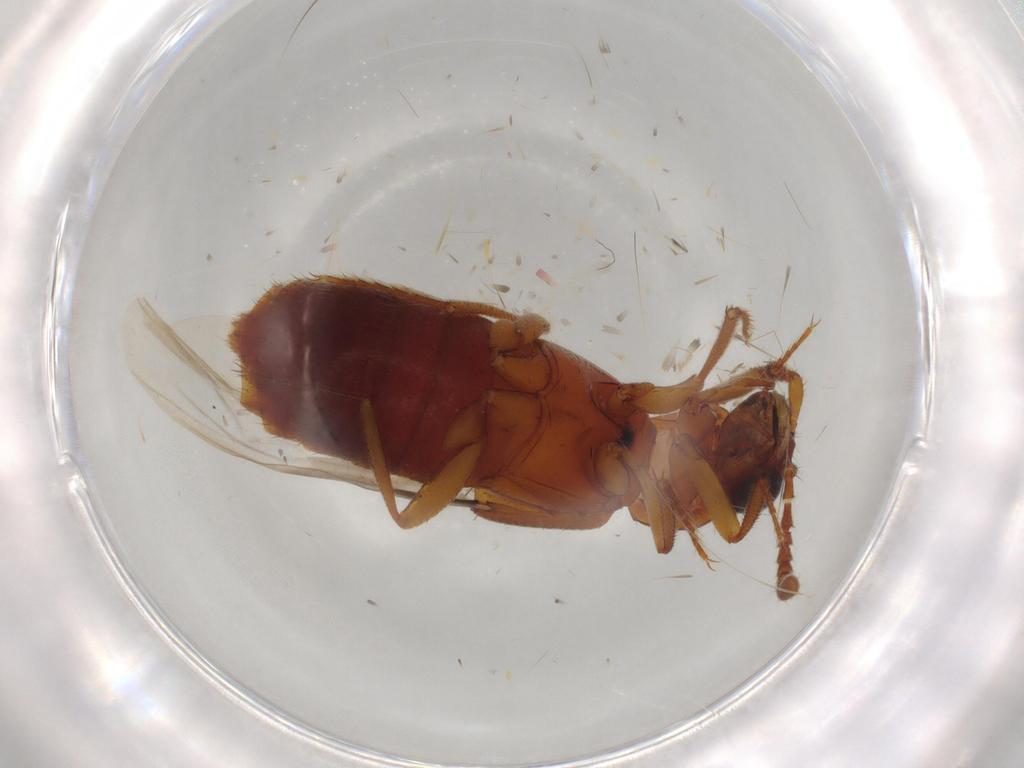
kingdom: Animalia
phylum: Arthropoda
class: Insecta
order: Coleoptera
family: Staphylinidae
